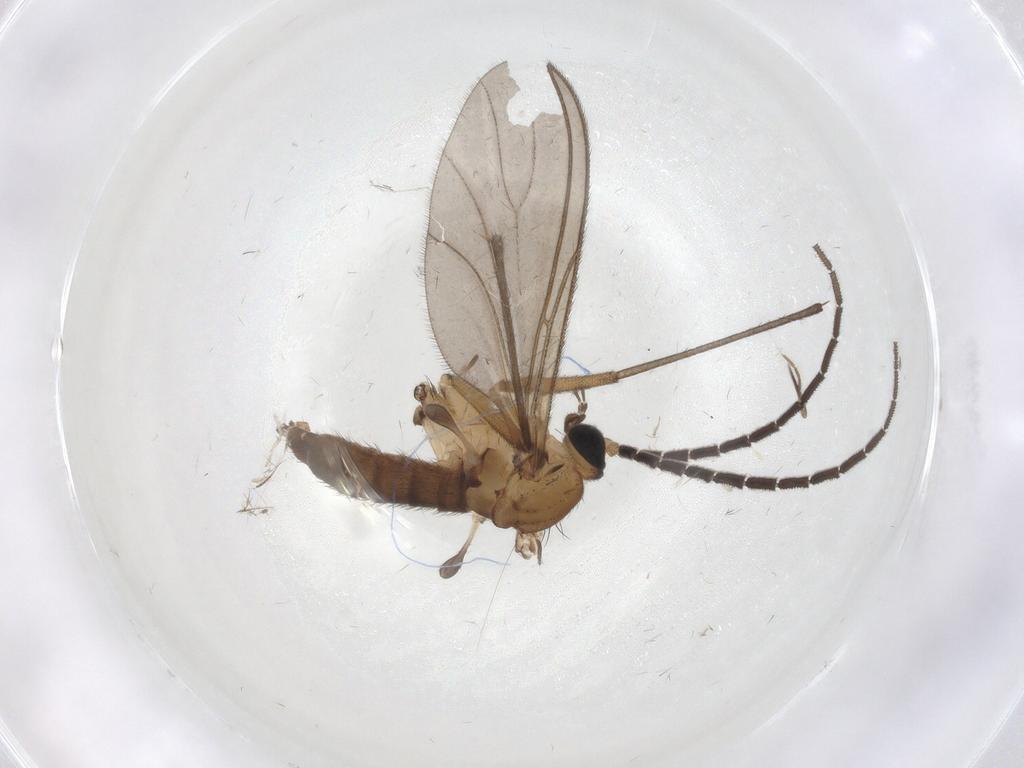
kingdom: Animalia
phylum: Arthropoda
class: Insecta
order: Diptera
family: Sciaridae
